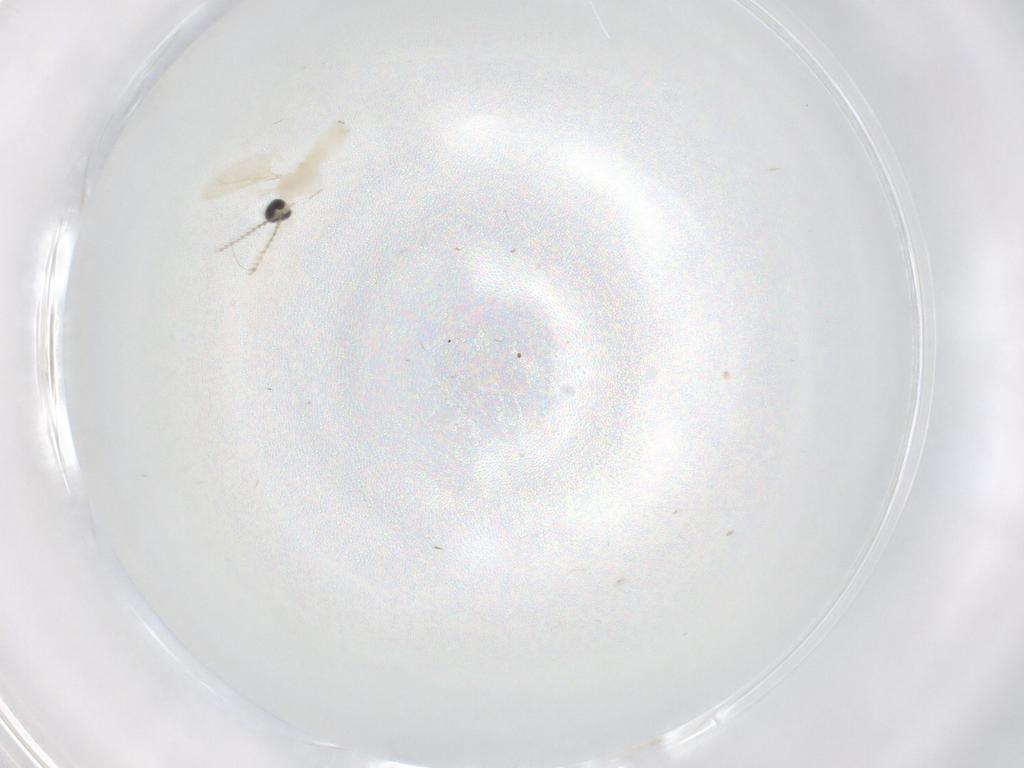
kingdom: Animalia
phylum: Arthropoda
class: Insecta
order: Diptera
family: Cecidomyiidae
